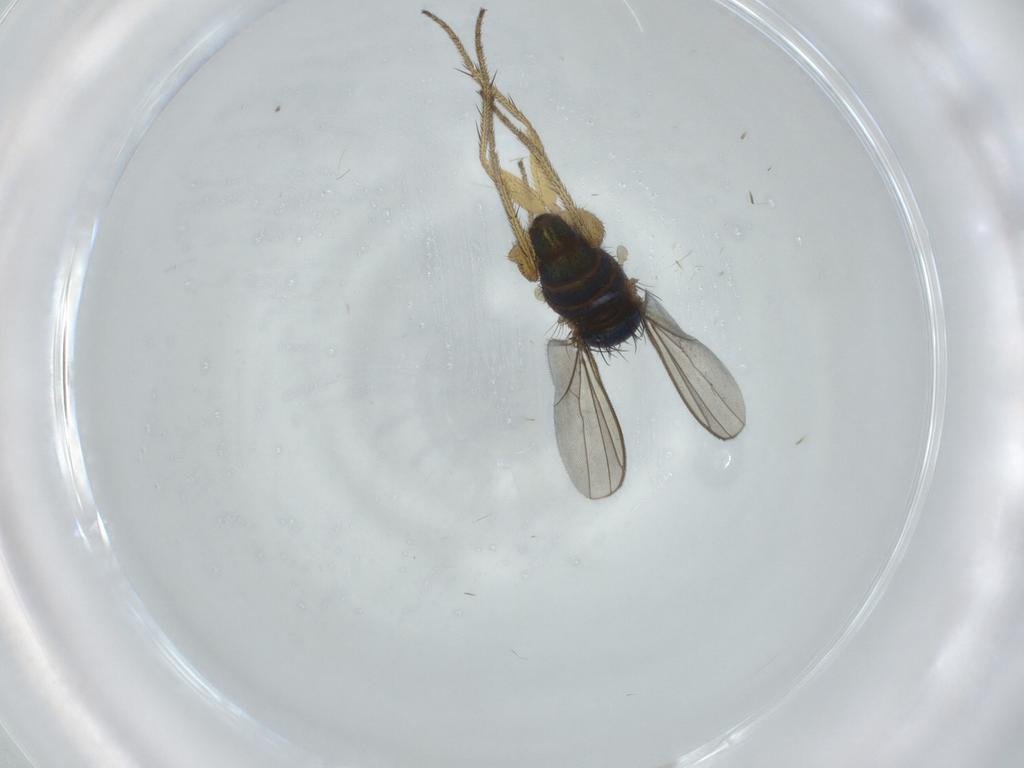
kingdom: Animalia
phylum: Arthropoda
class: Insecta
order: Diptera
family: Dolichopodidae
